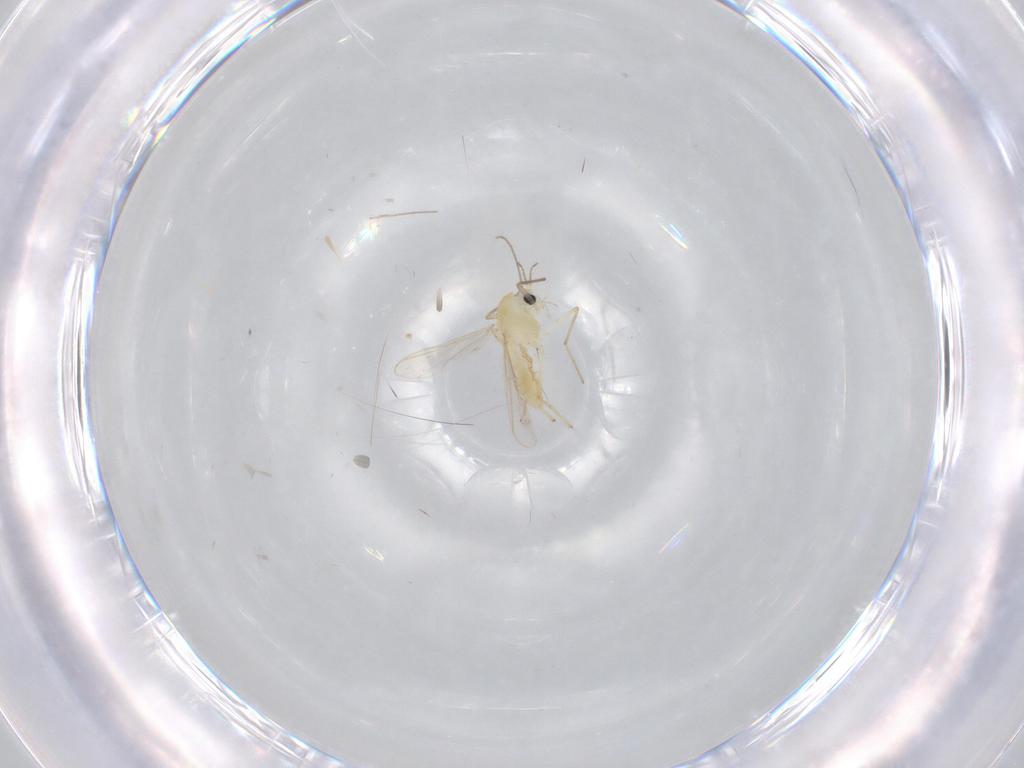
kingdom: Animalia
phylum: Arthropoda
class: Insecta
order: Diptera
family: Chironomidae
